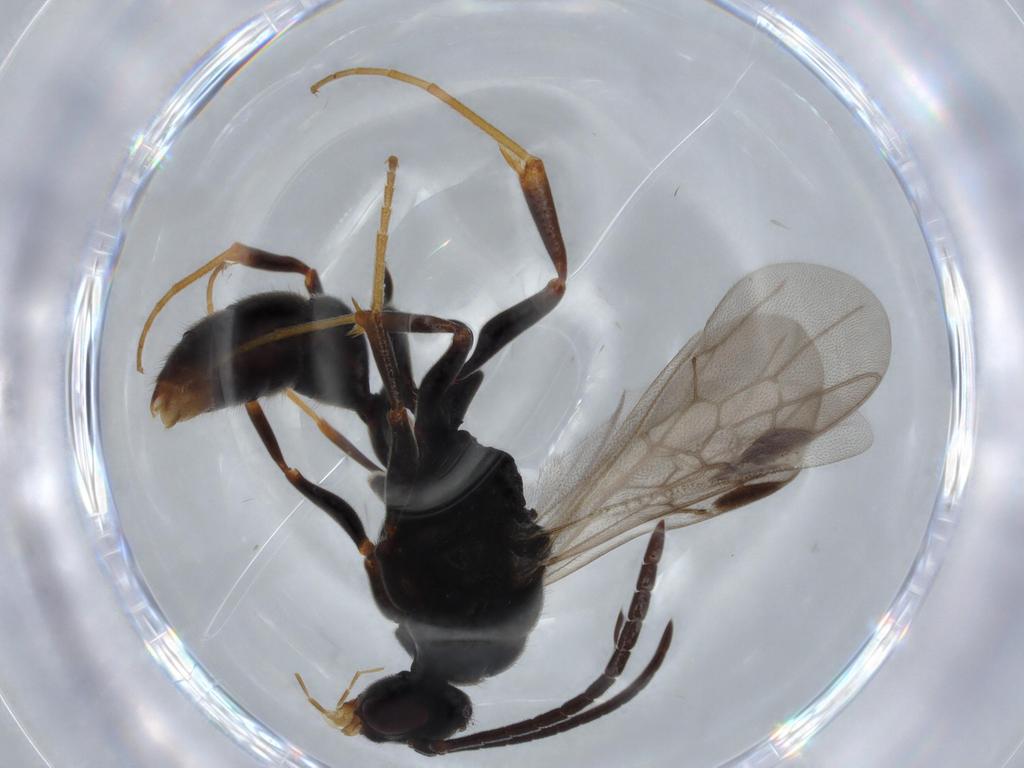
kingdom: Animalia
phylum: Arthropoda
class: Insecta
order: Hymenoptera
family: Formicidae
